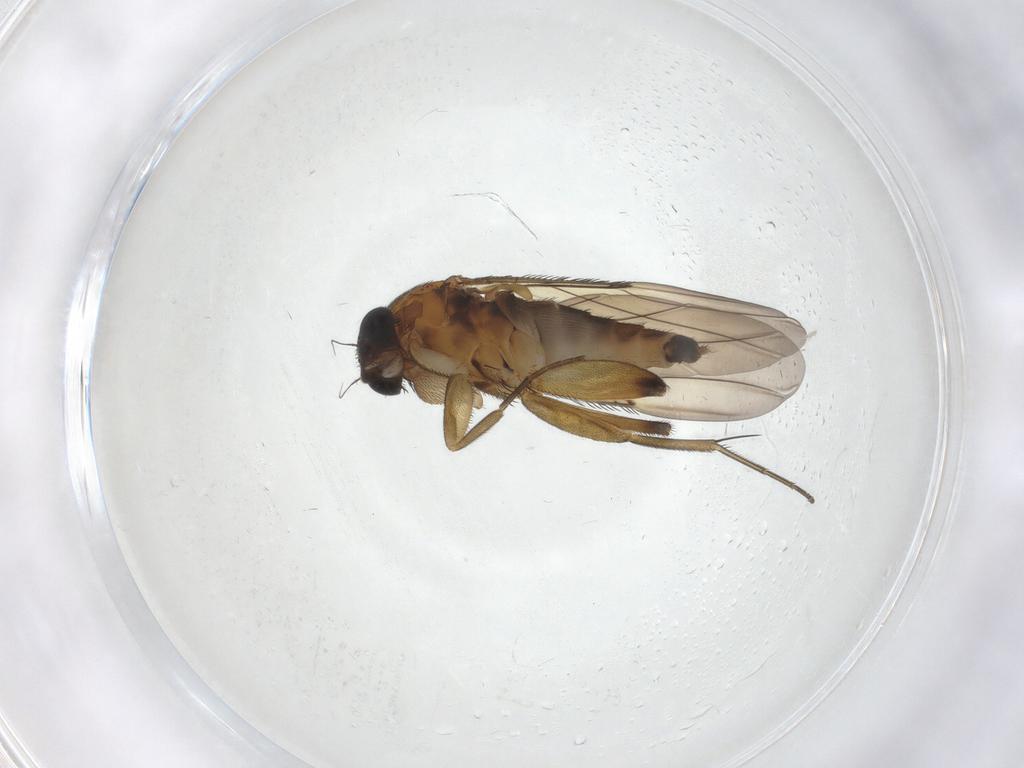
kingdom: Animalia
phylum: Arthropoda
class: Insecta
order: Diptera
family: Phoridae
